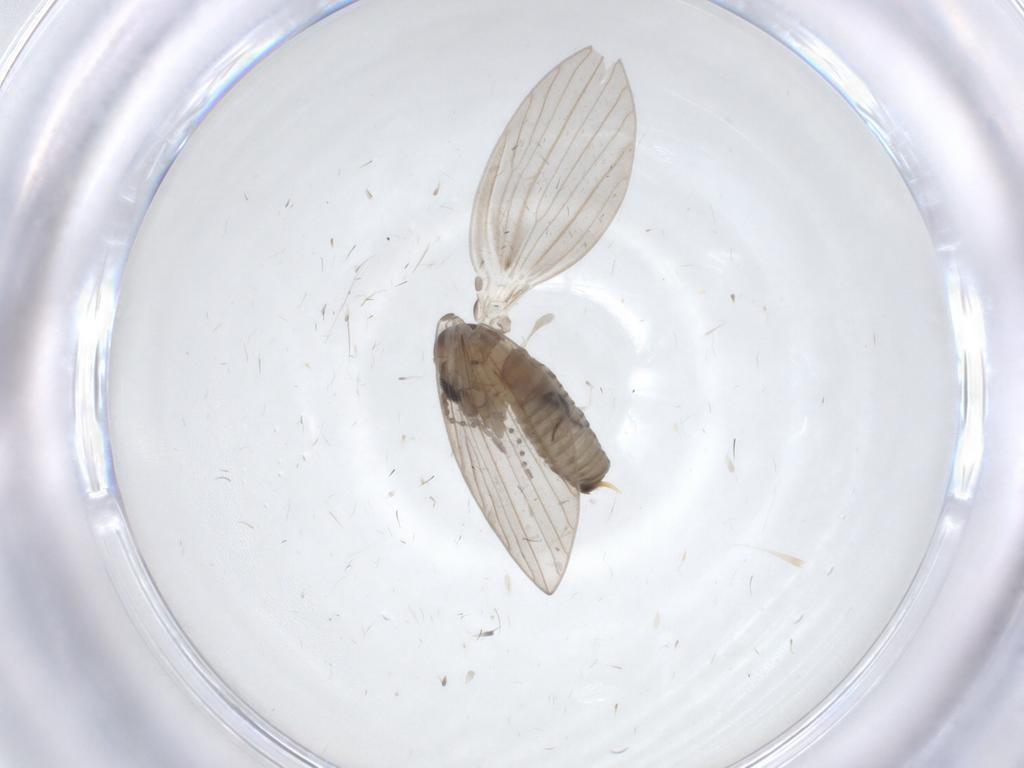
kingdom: Animalia
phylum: Arthropoda
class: Insecta
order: Diptera
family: Psychodidae
